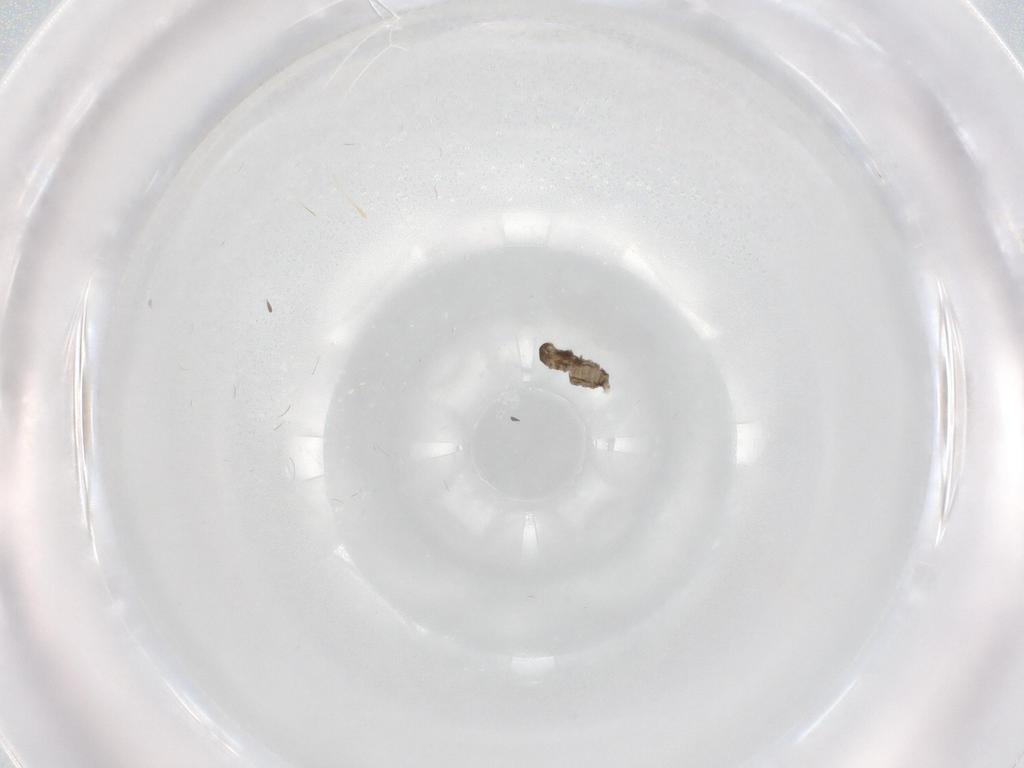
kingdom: Animalia
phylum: Arthropoda
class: Insecta
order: Diptera
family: Cecidomyiidae
